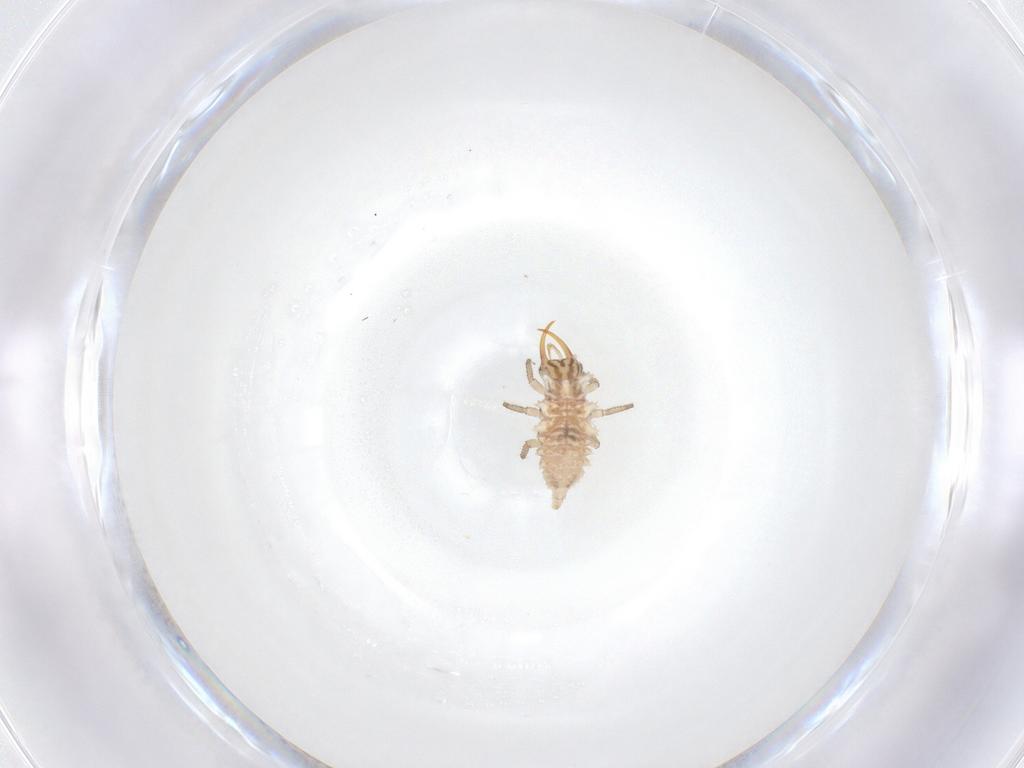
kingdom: Animalia
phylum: Arthropoda
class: Insecta
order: Neuroptera
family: Chrysopidae
